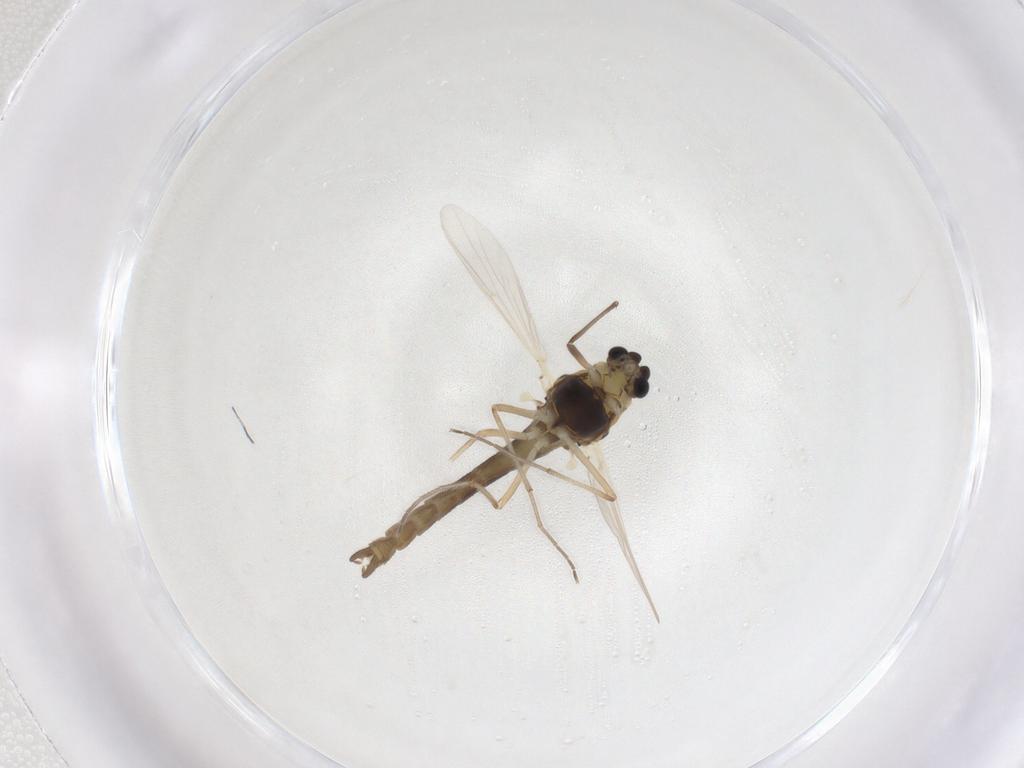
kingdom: Animalia
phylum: Arthropoda
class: Insecta
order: Diptera
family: Chironomidae
